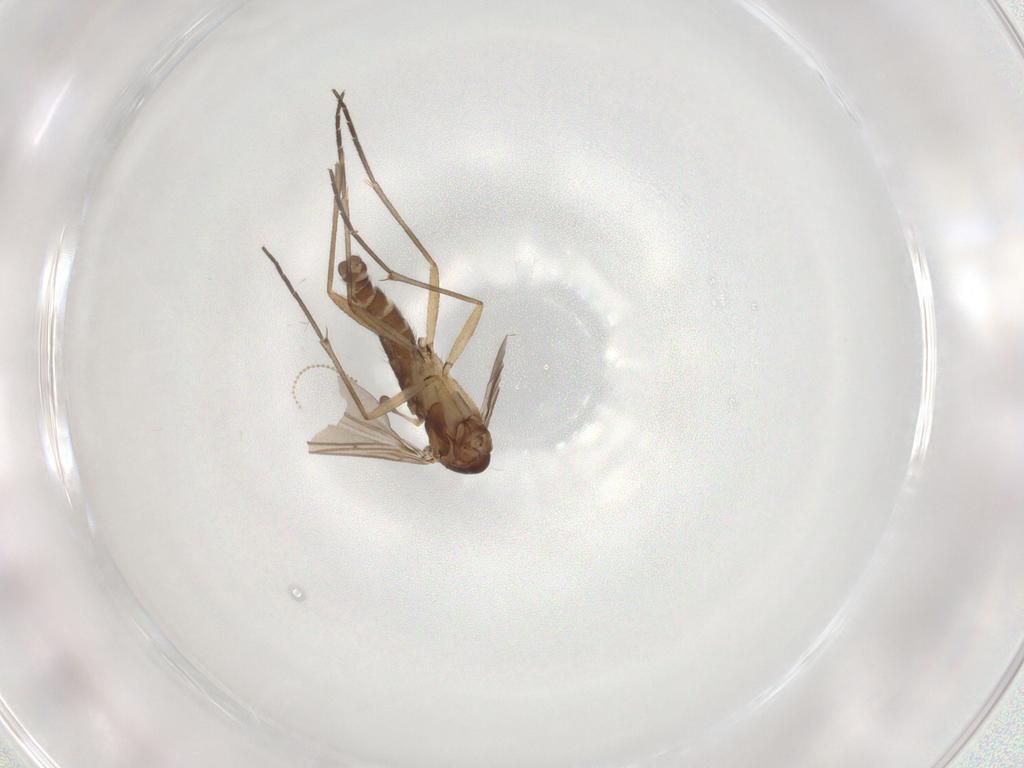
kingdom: Animalia
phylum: Arthropoda
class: Insecta
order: Diptera
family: Sciaridae
